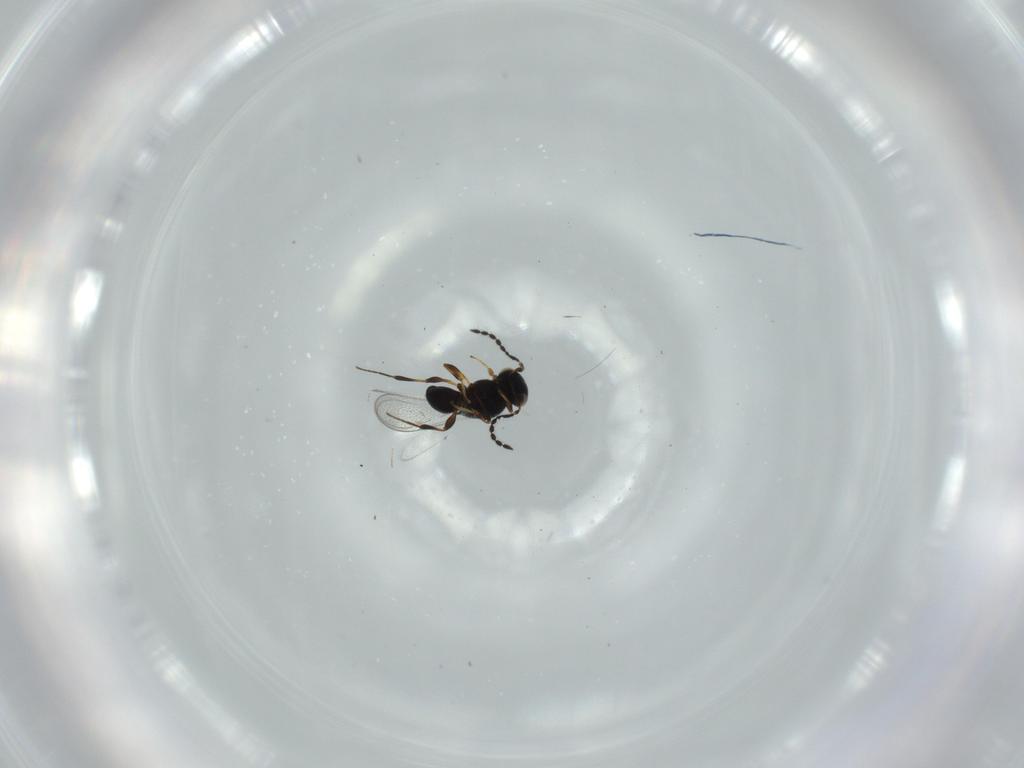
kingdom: Animalia
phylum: Arthropoda
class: Insecta
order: Hymenoptera
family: Platygastridae
